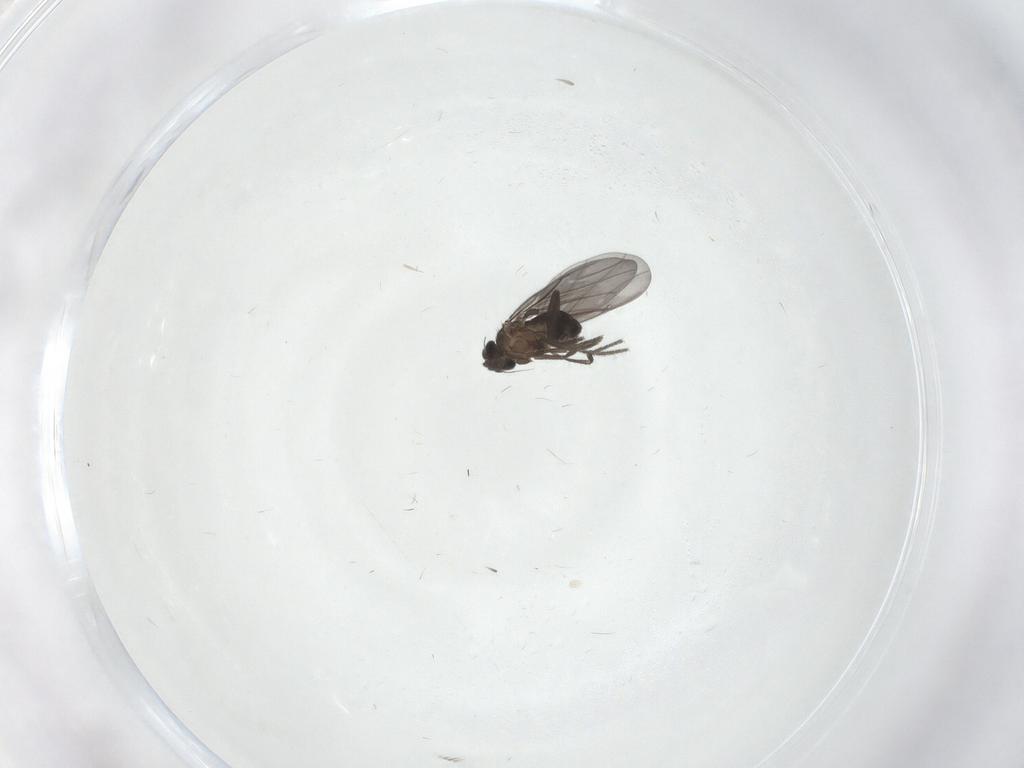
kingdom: Animalia
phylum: Arthropoda
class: Insecta
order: Diptera
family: Phoridae
